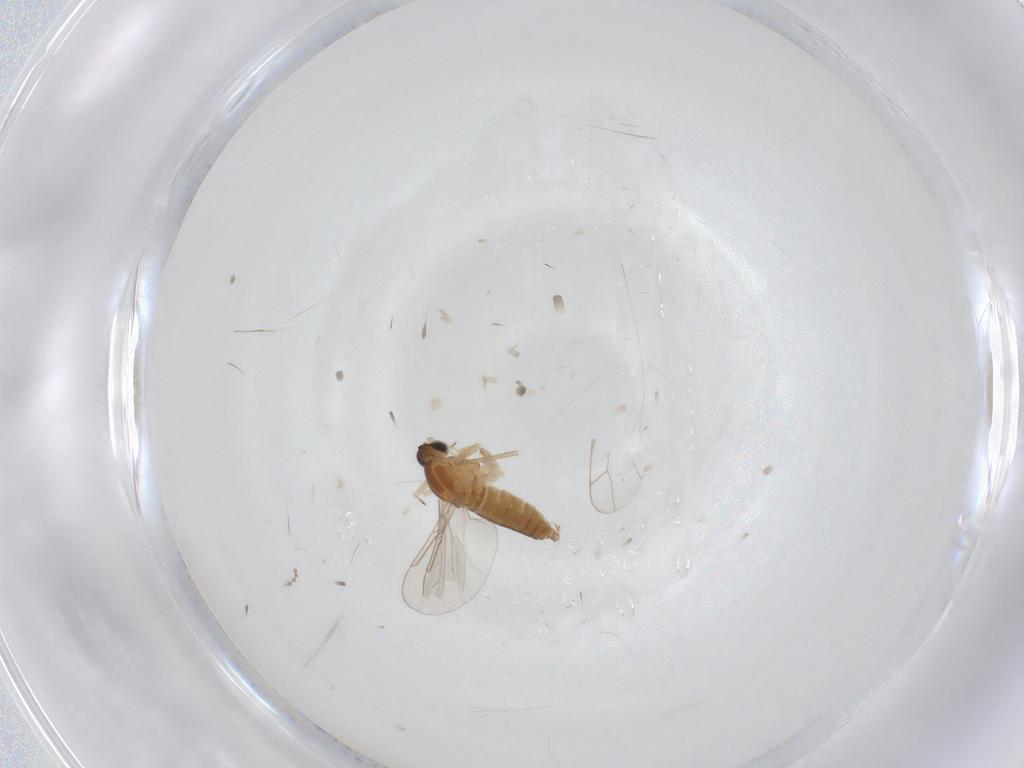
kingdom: Animalia
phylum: Arthropoda
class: Insecta
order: Diptera
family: Cecidomyiidae
